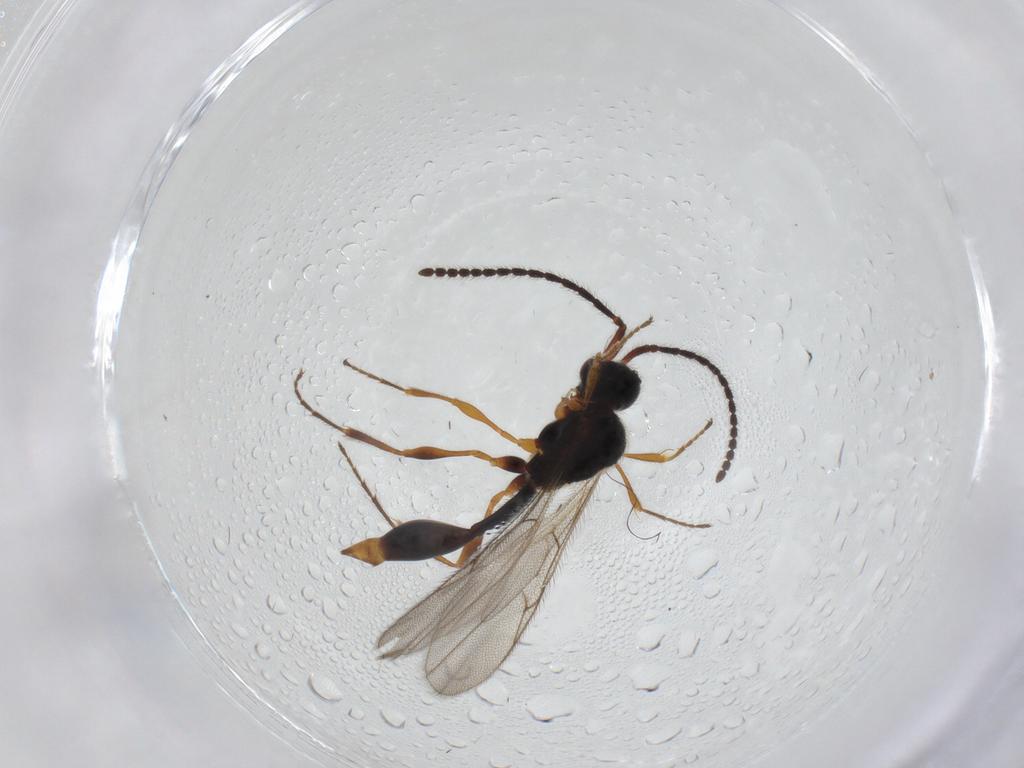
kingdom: Animalia
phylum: Arthropoda
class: Insecta
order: Hymenoptera
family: Diapriidae
